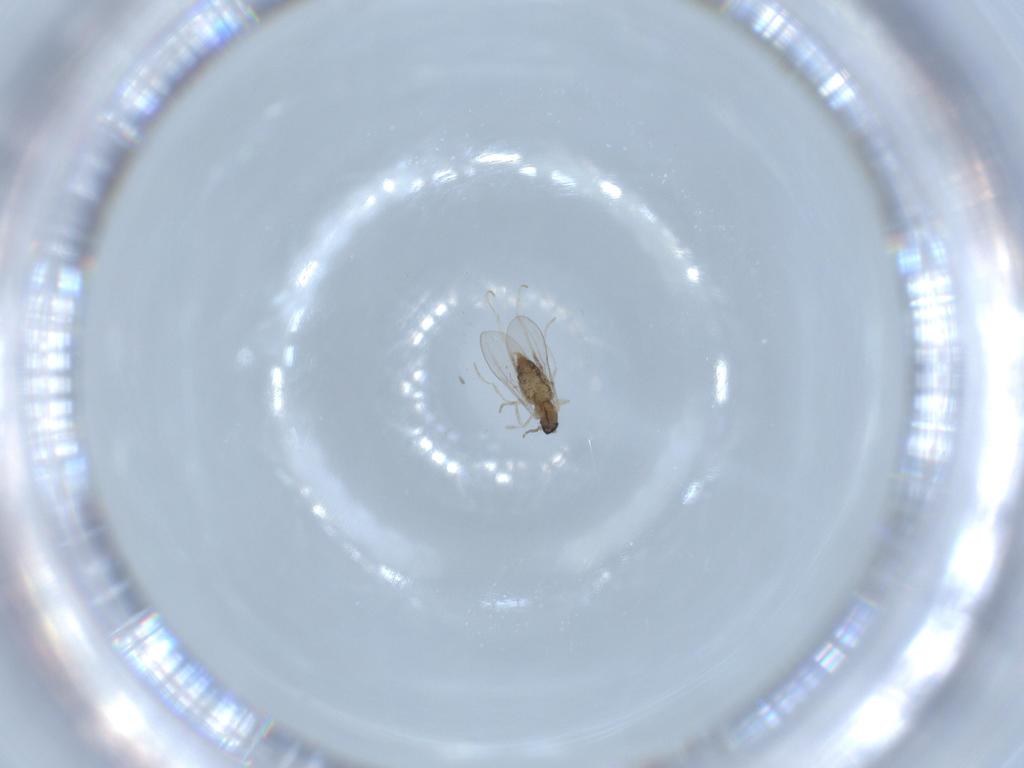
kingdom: Animalia
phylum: Arthropoda
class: Insecta
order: Diptera
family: Cecidomyiidae
